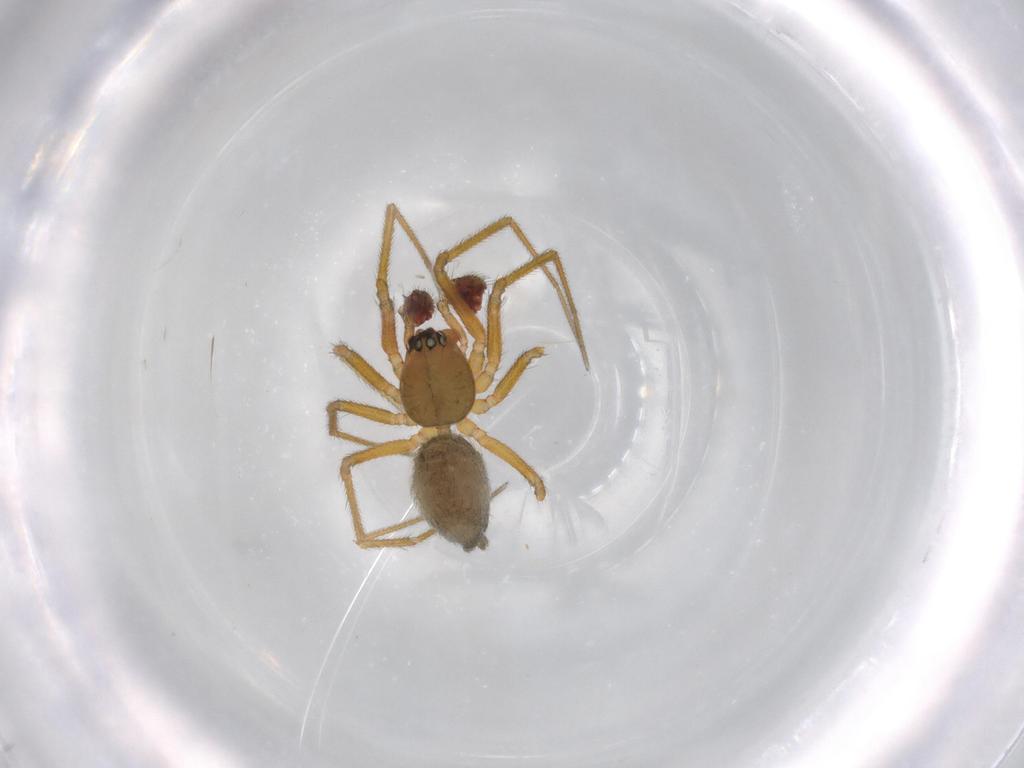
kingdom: Animalia
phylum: Arthropoda
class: Arachnida
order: Araneae
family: Linyphiidae
